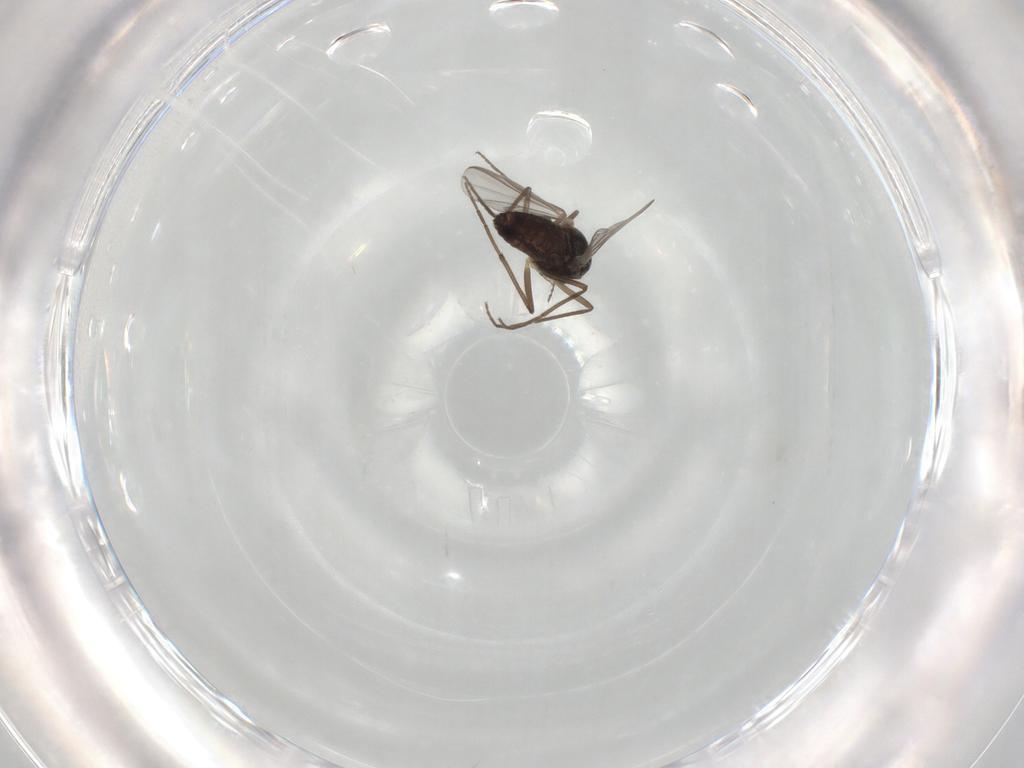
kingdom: Animalia
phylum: Arthropoda
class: Insecta
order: Diptera
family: Chironomidae
